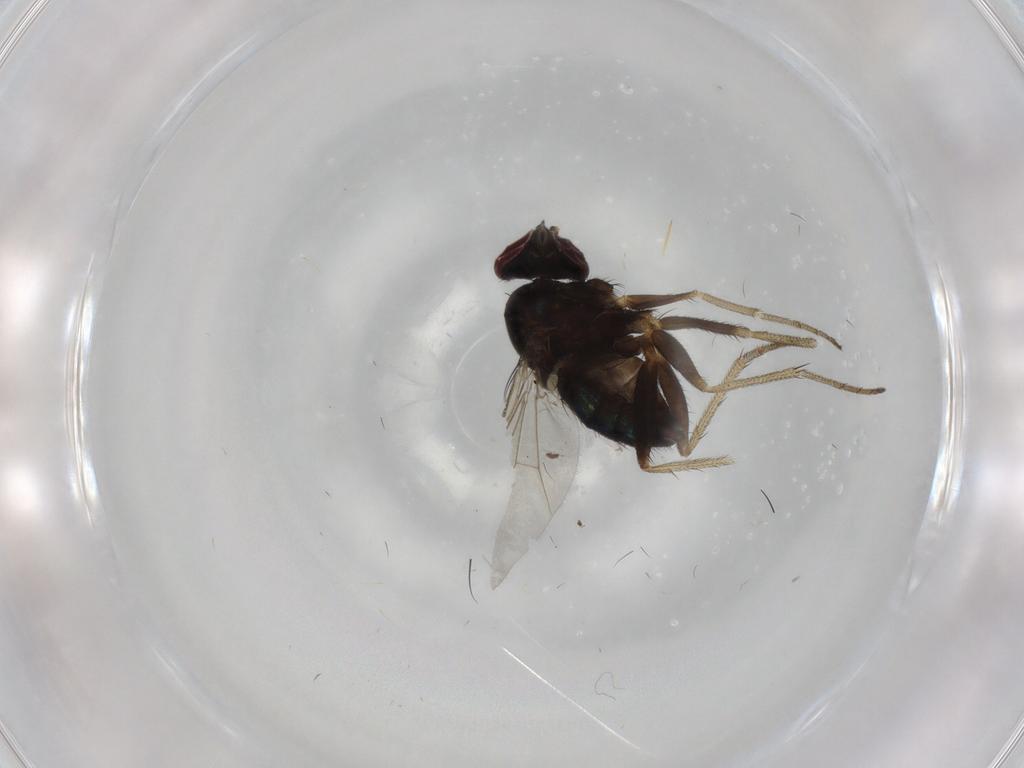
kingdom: Animalia
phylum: Arthropoda
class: Insecta
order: Diptera
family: Dolichopodidae
